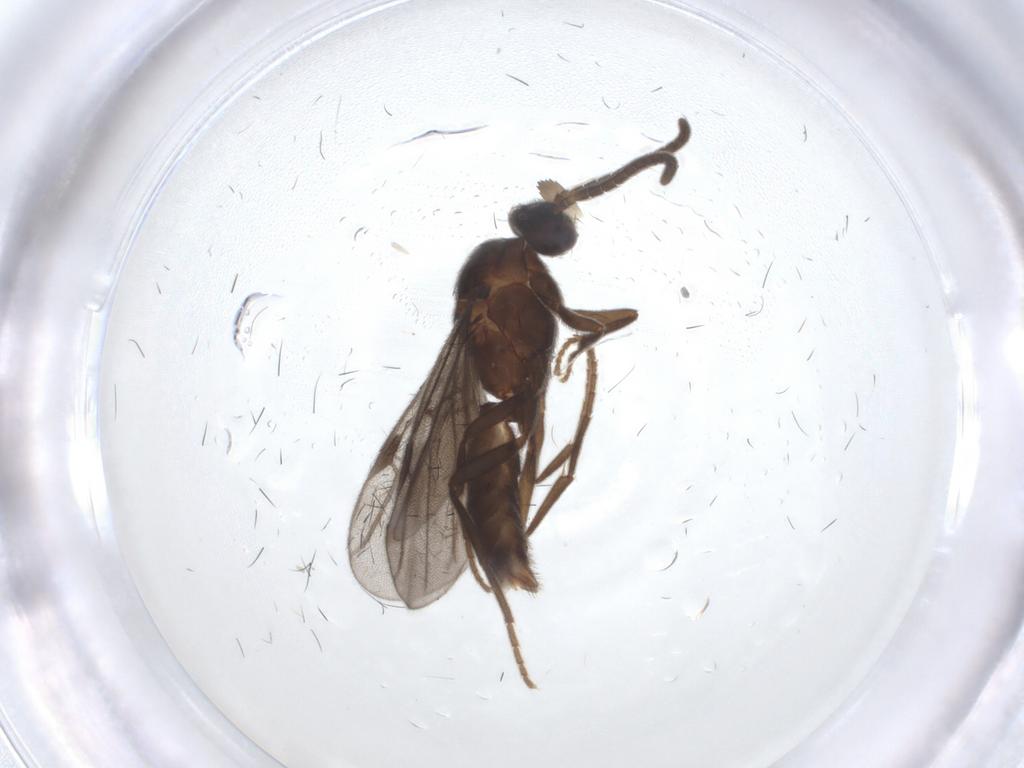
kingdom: Animalia
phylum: Arthropoda
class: Insecta
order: Hymenoptera
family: Formicidae
